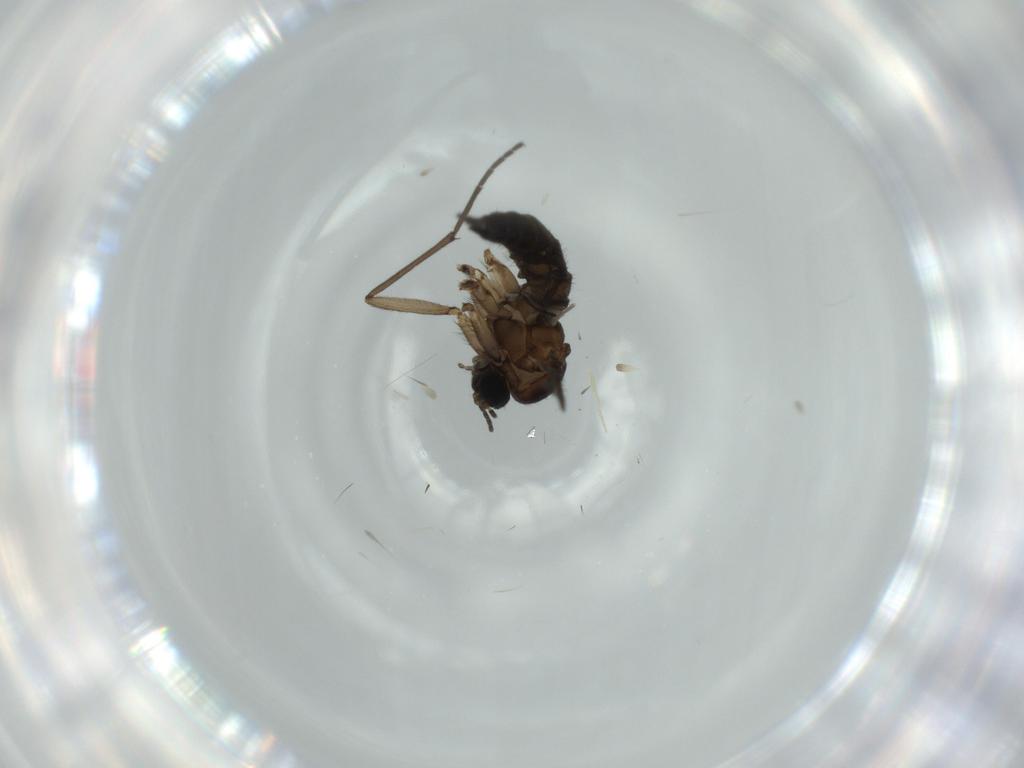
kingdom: Animalia
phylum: Arthropoda
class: Insecta
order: Diptera
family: Sciaridae
